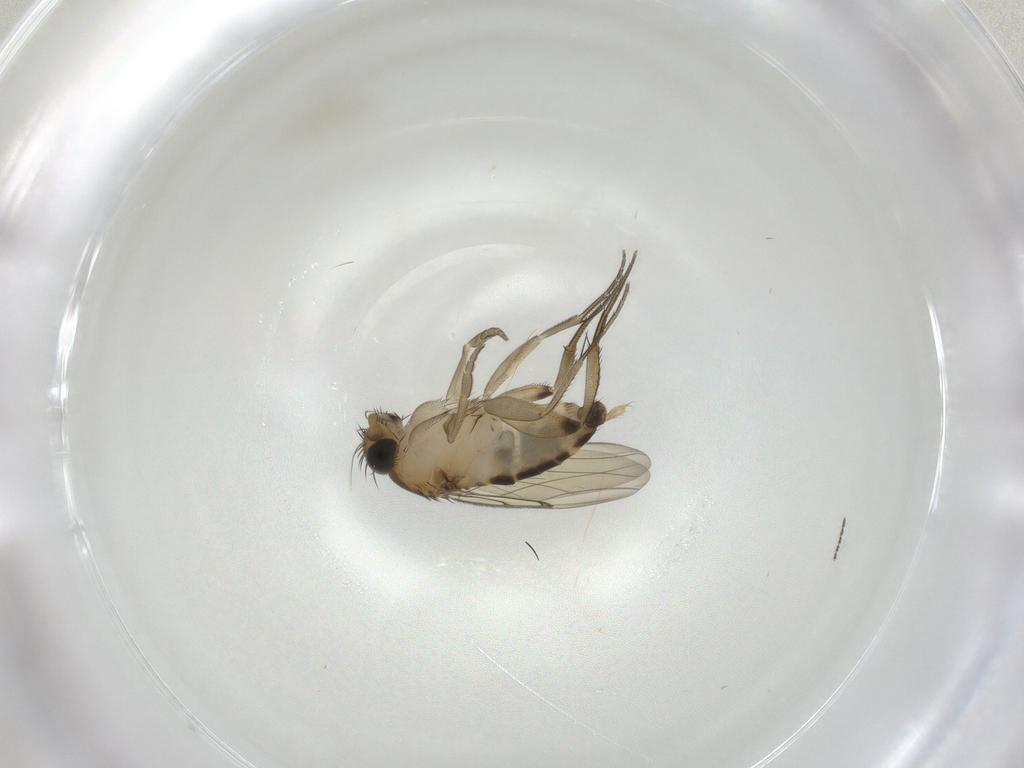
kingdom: Animalia
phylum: Arthropoda
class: Insecta
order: Diptera
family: Phoridae
